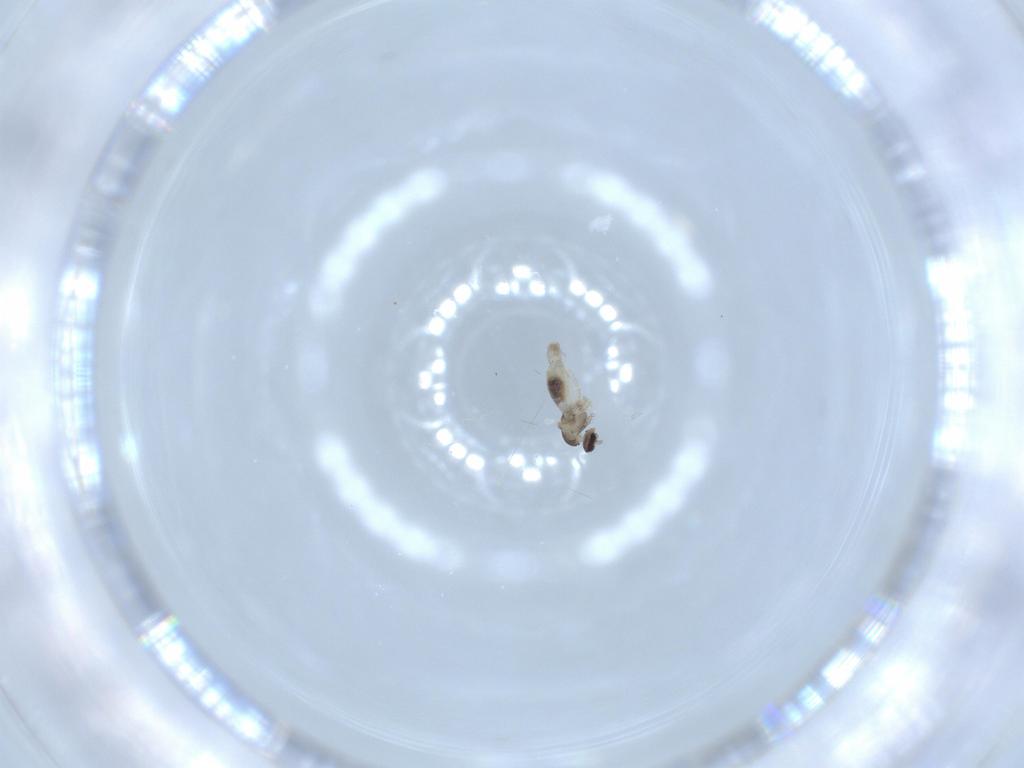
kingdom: Animalia
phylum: Arthropoda
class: Insecta
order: Diptera
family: Cecidomyiidae
